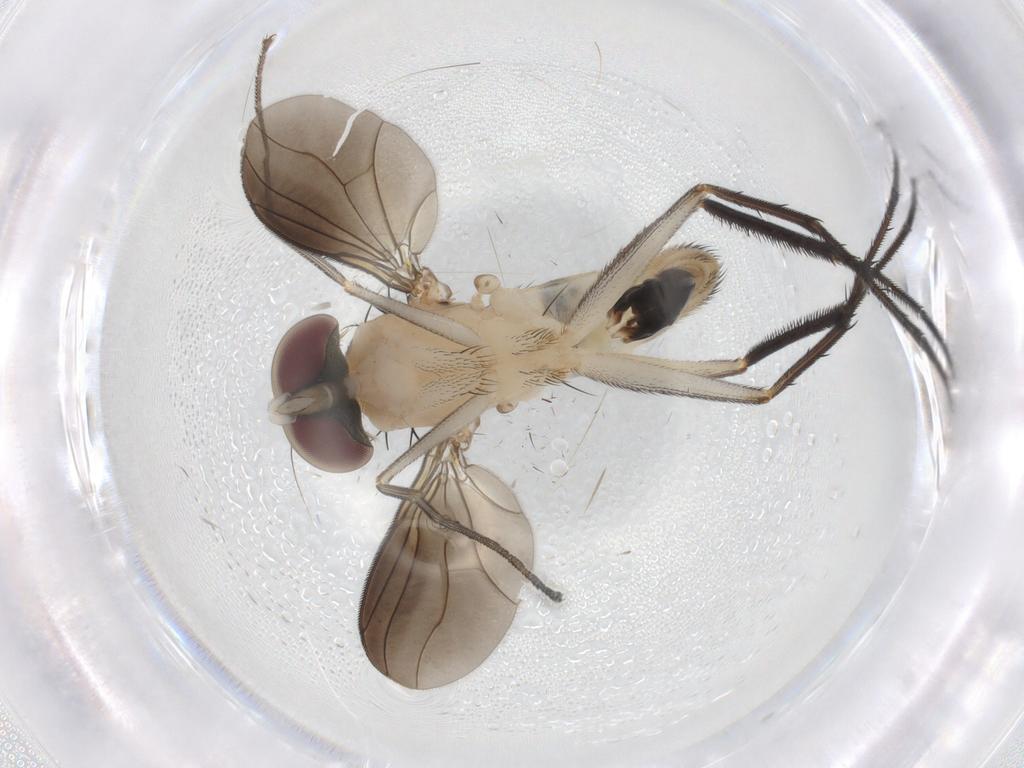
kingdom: Animalia
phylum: Arthropoda
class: Insecta
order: Diptera
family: Dolichopodidae
